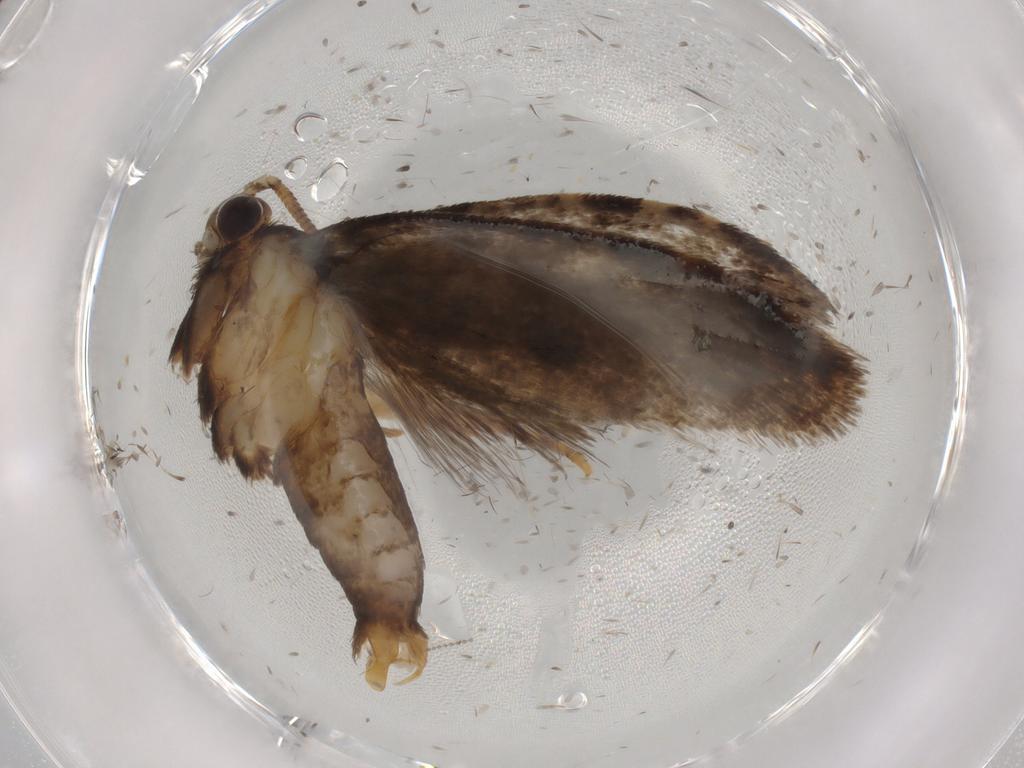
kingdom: Animalia
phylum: Arthropoda
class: Insecta
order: Lepidoptera
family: Tineidae
